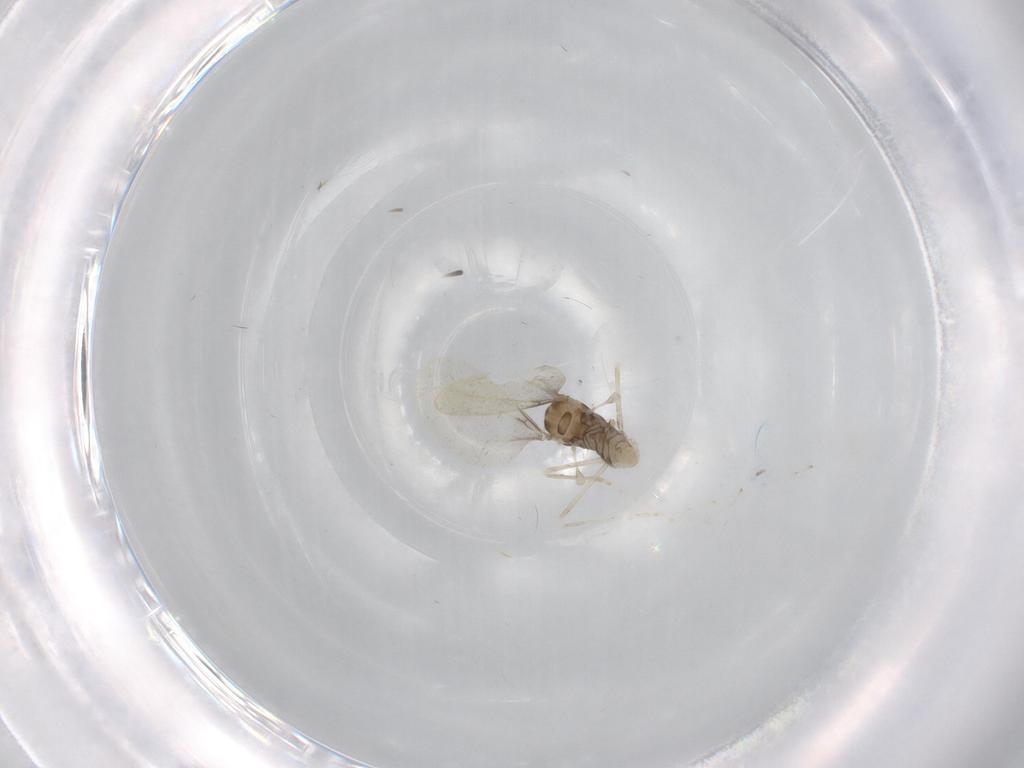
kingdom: Animalia
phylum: Arthropoda
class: Insecta
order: Diptera
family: Cecidomyiidae
